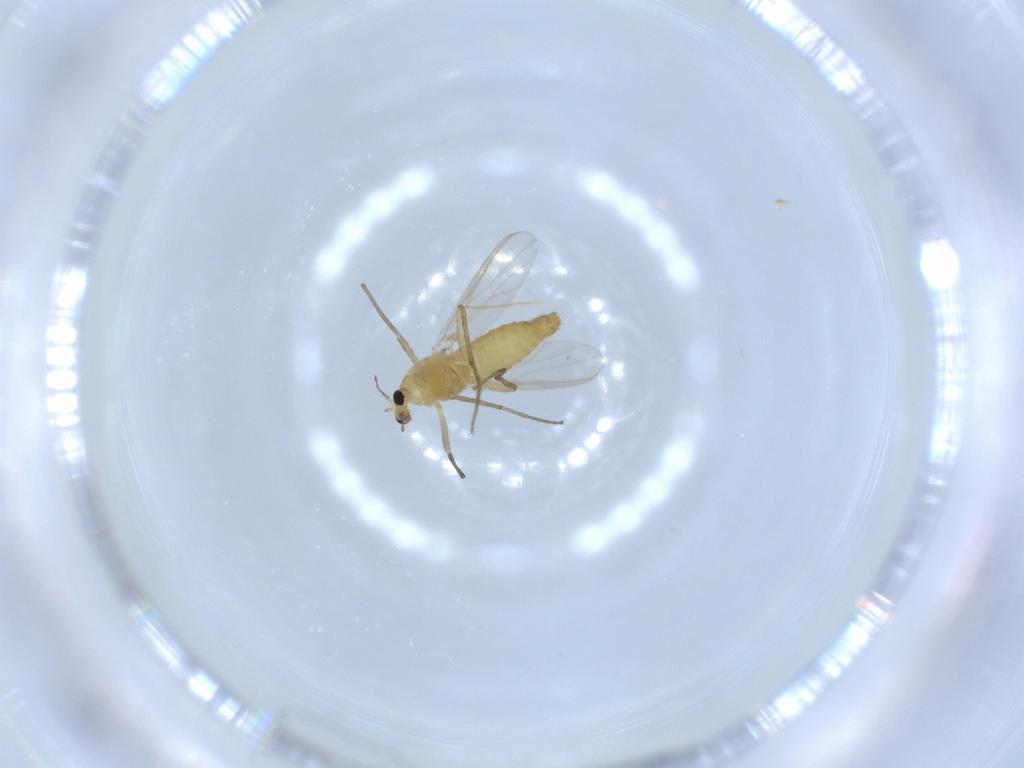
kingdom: Animalia
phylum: Arthropoda
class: Insecta
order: Diptera
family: Chironomidae
